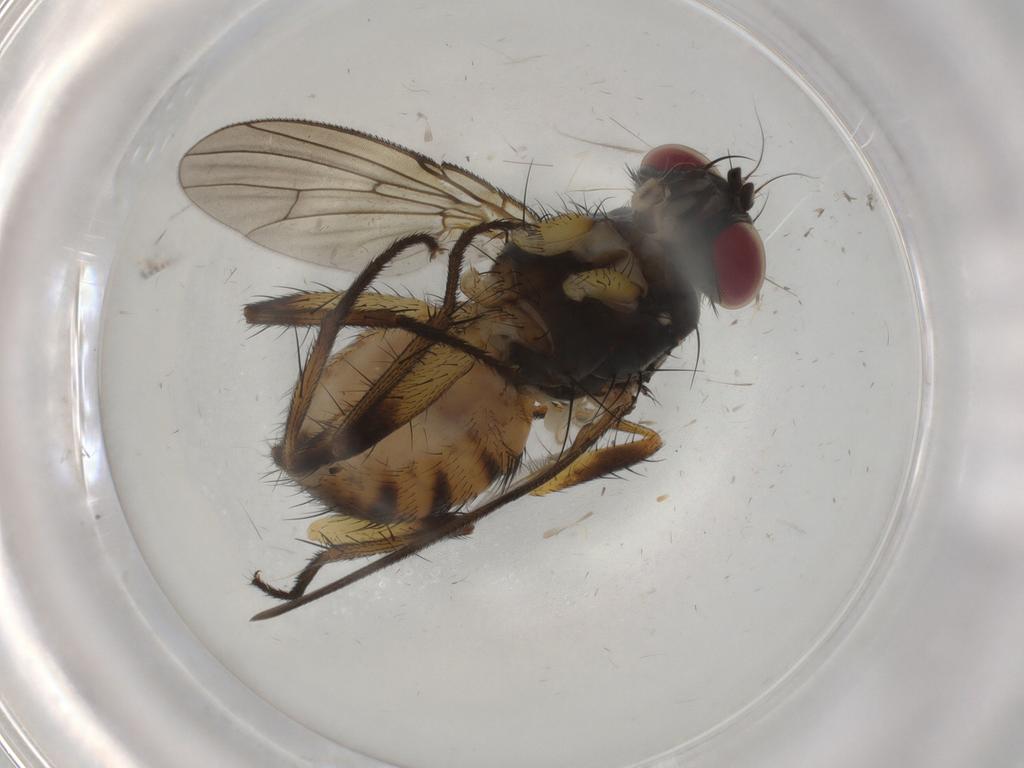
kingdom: Animalia
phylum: Arthropoda
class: Insecta
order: Diptera
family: Muscidae
